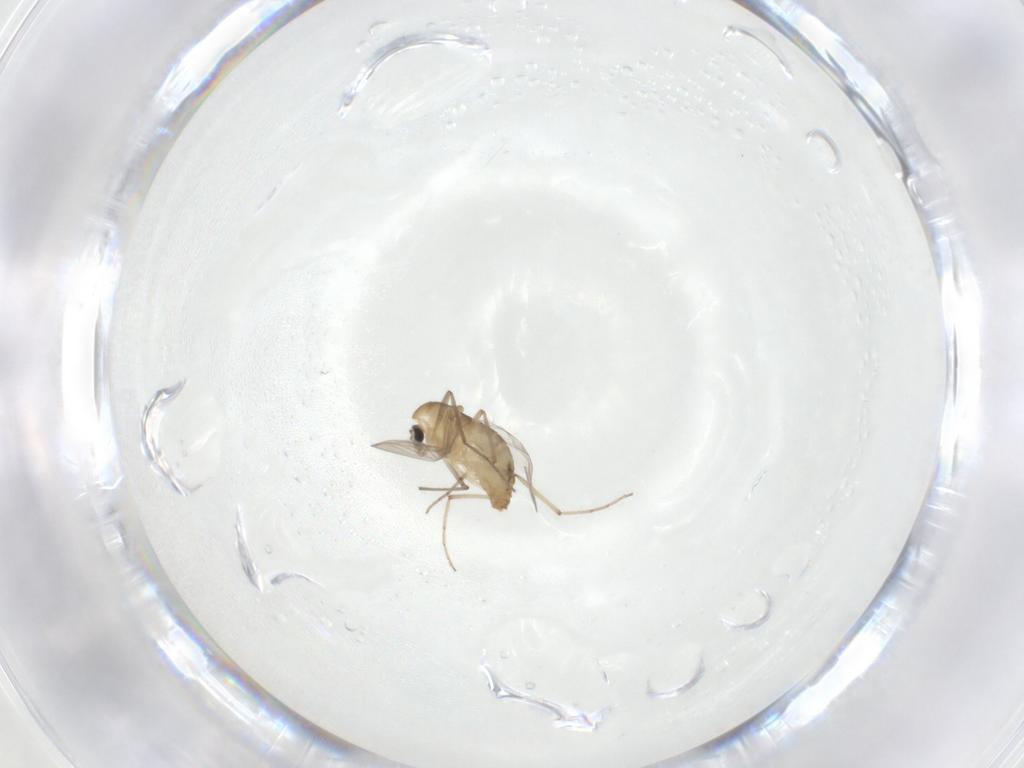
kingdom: Animalia
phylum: Arthropoda
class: Insecta
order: Diptera
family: Chironomidae
